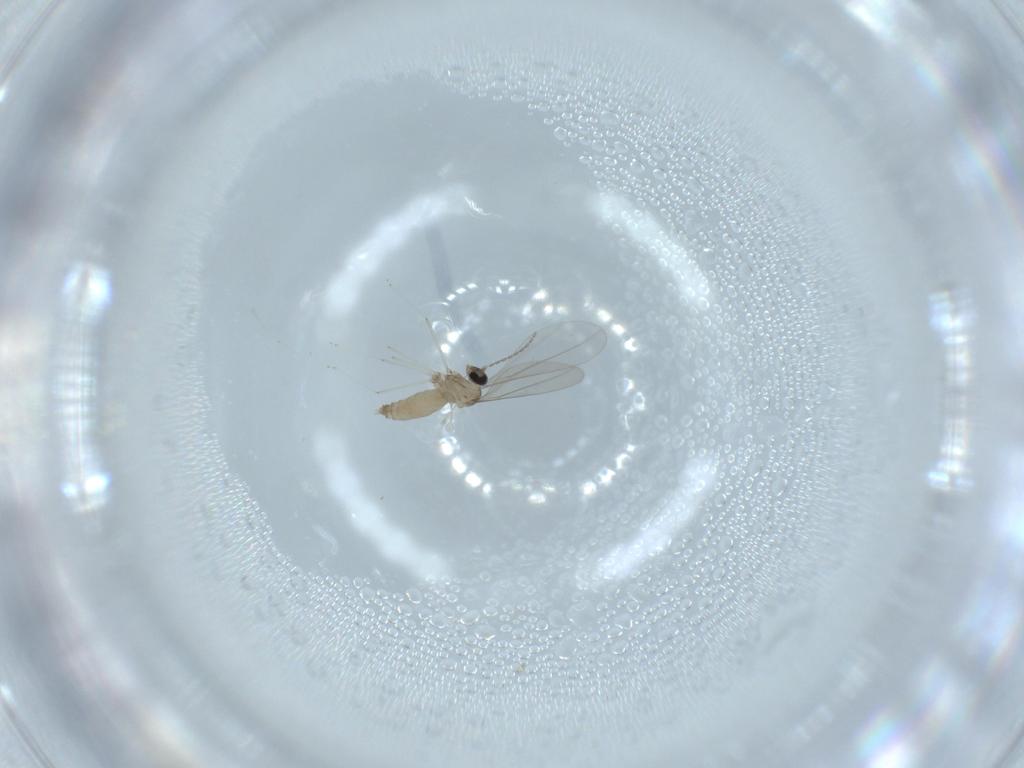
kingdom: Animalia
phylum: Arthropoda
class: Insecta
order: Diptera
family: Cecidomyiidae
